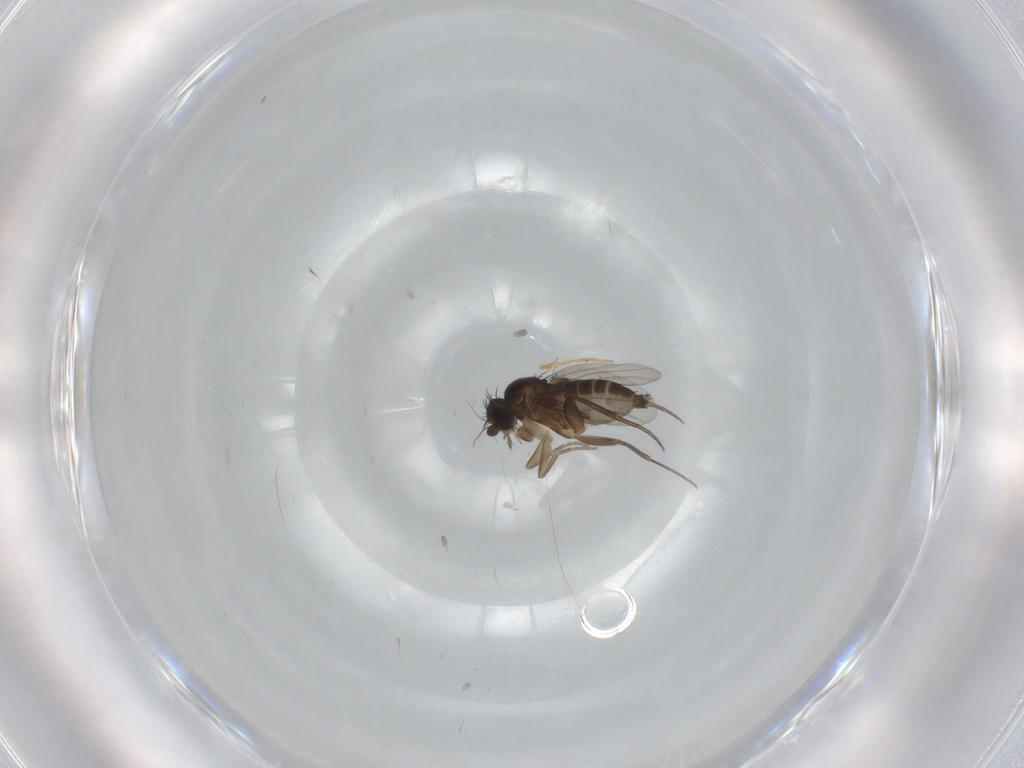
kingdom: Animalia
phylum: Arthropoda
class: Insecta
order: Diptera
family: Phoridae
